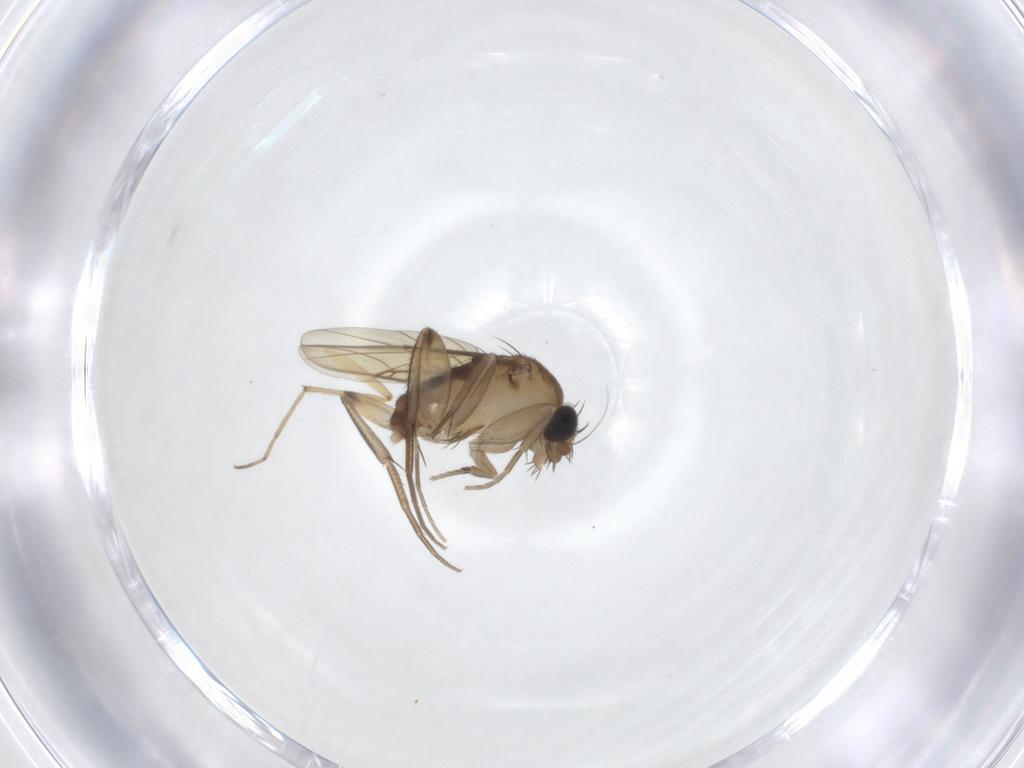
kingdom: Animalia
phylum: Arthropoda
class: Insecta
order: Diptera
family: Phoridae
